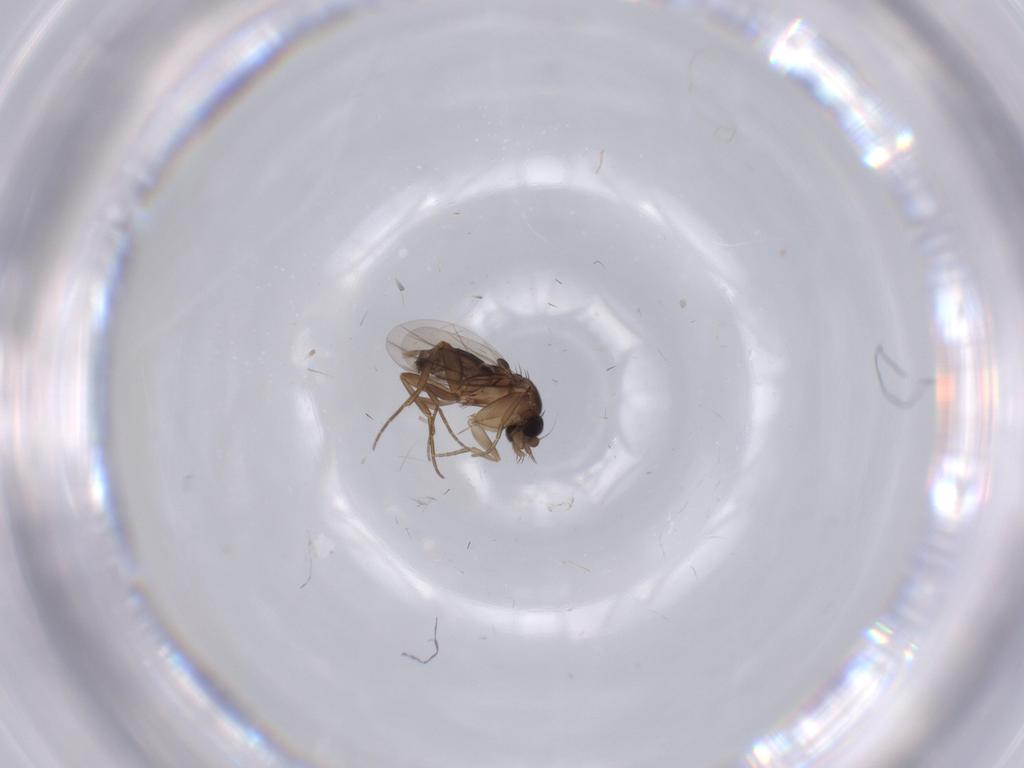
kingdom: Animalia
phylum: Arthropoda
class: Insecta
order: Diptera
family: Phoridae
